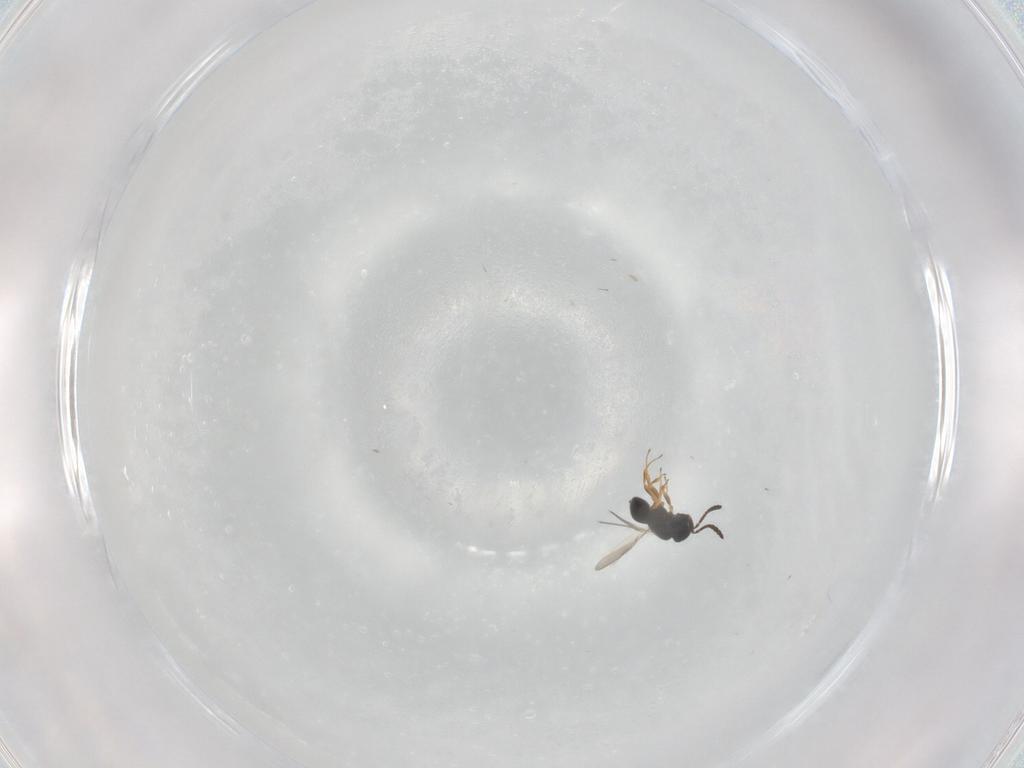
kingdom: Animalia
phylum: Arthropoda
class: Insecta
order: Hymenoptera
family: Scelionidae
